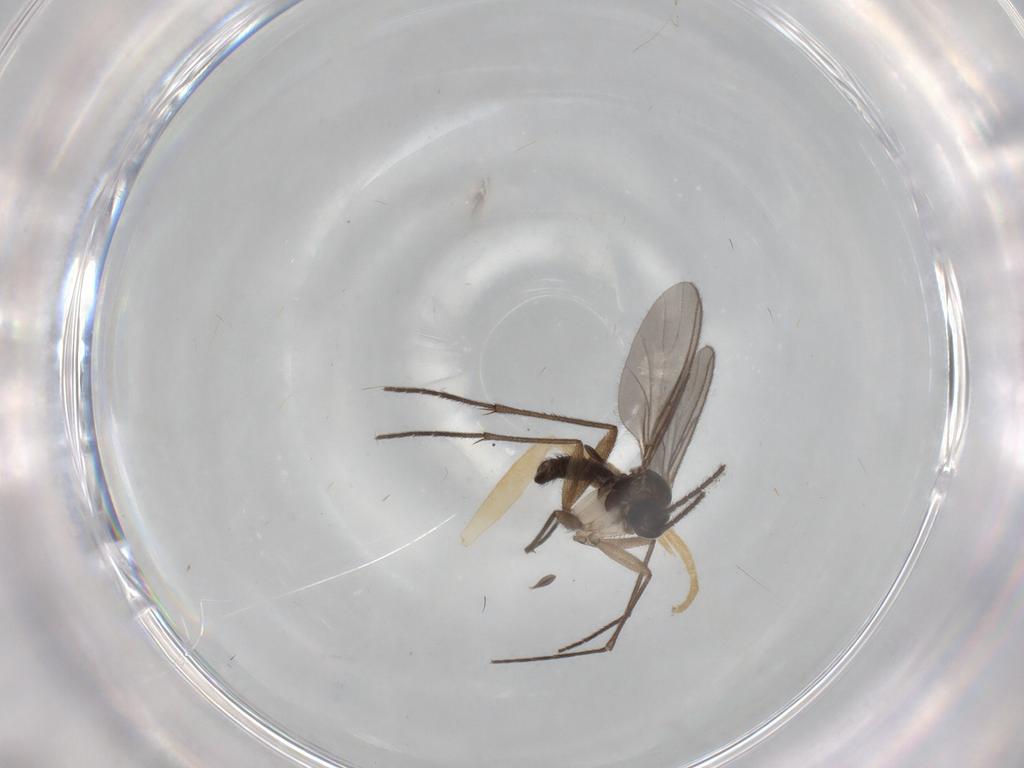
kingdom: Animalia
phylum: Arthropoda
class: Insecta
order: Diptera
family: Sciaridae
